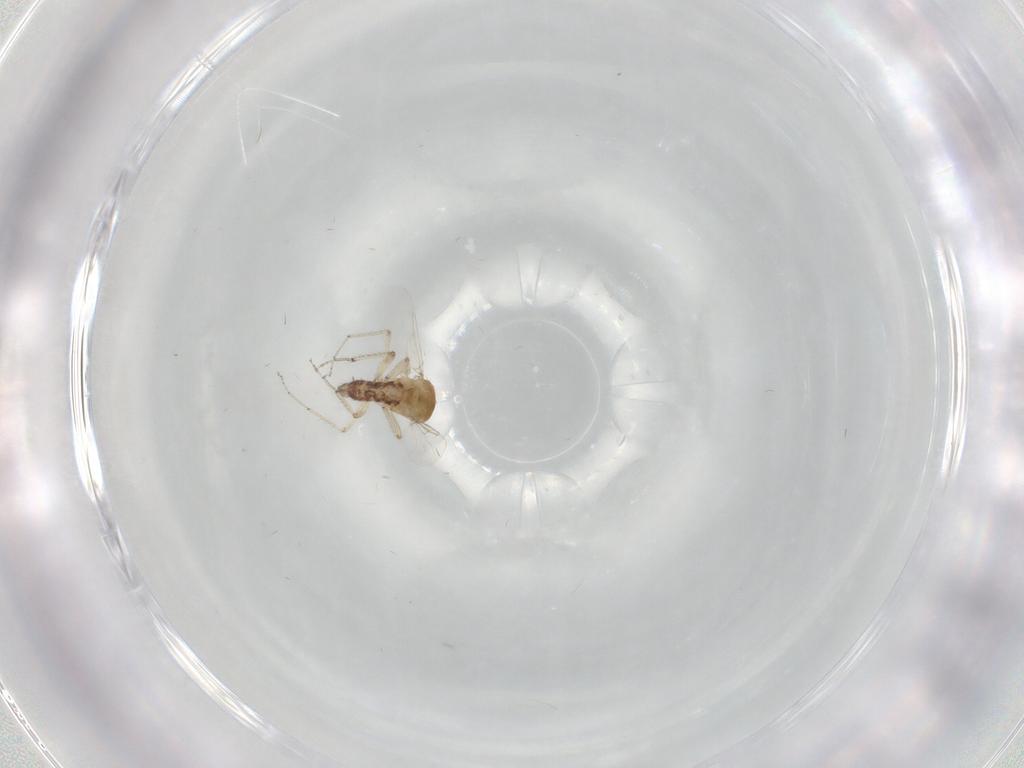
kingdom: Animalia
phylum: Arthropoda
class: Insecta
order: Diptera
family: Ceratopogonidae
